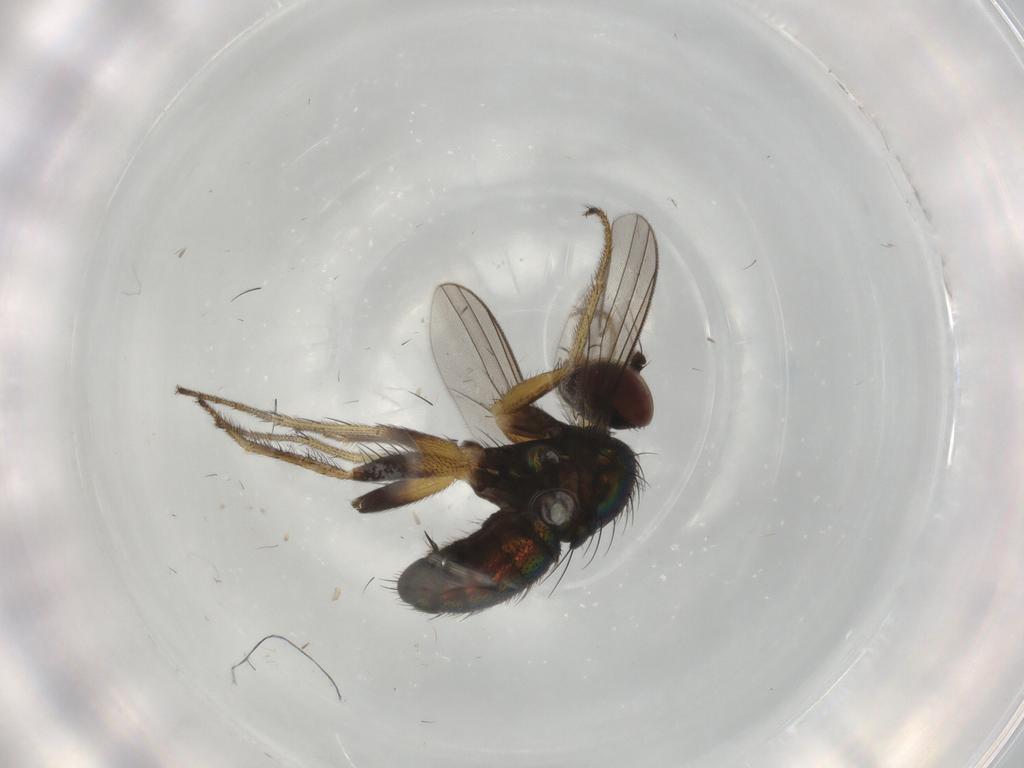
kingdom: Animalia
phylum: Arthropoda
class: Insecta
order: Diptera
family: Dolichopodidae
